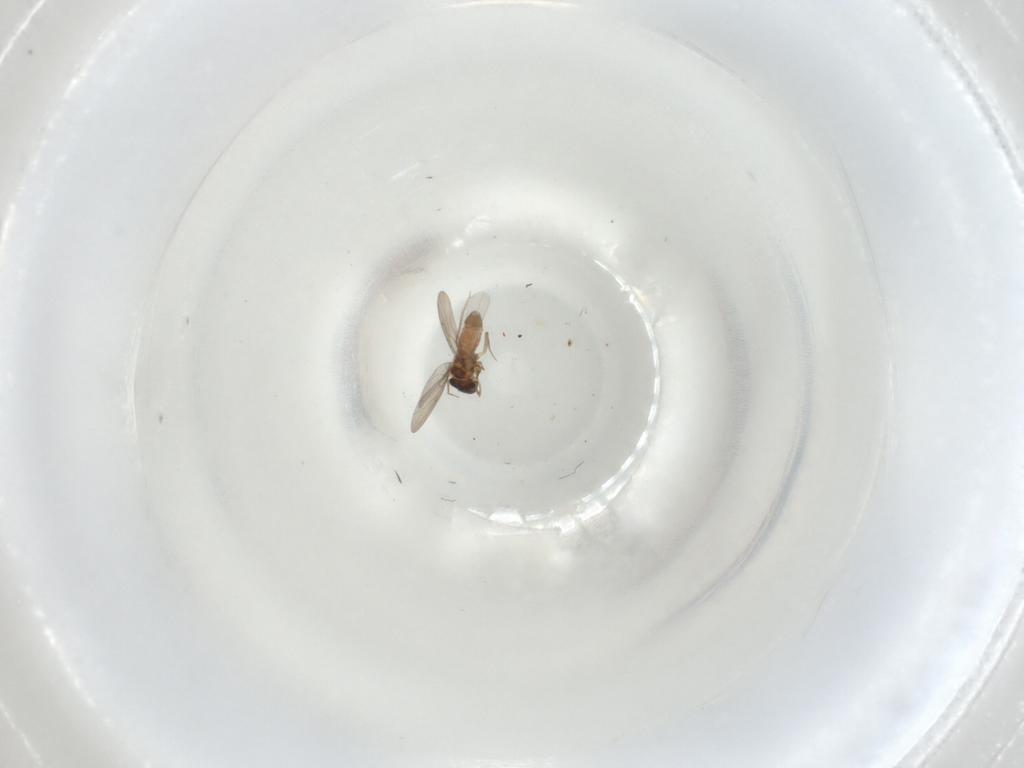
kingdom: Animalia
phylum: Arthropoda
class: Insecta
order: Psocodea
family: Lepidopsocidae
